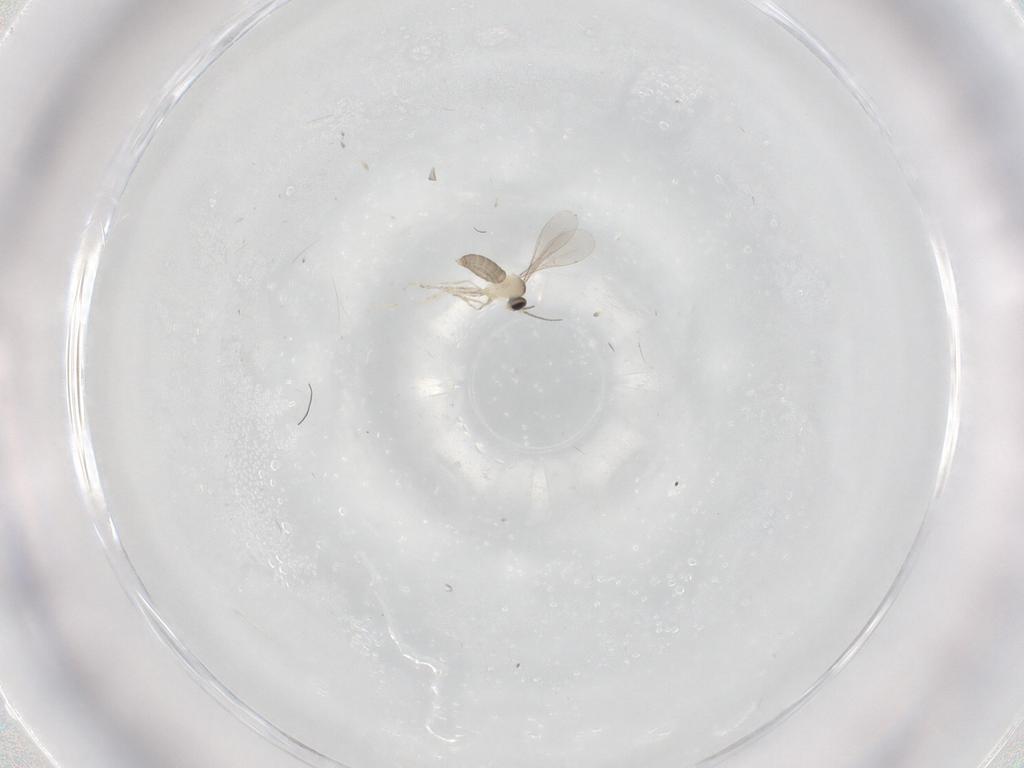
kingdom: Animalia
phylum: Arthropoda
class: Insecta
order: Diptera
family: Cecidomyiidae
